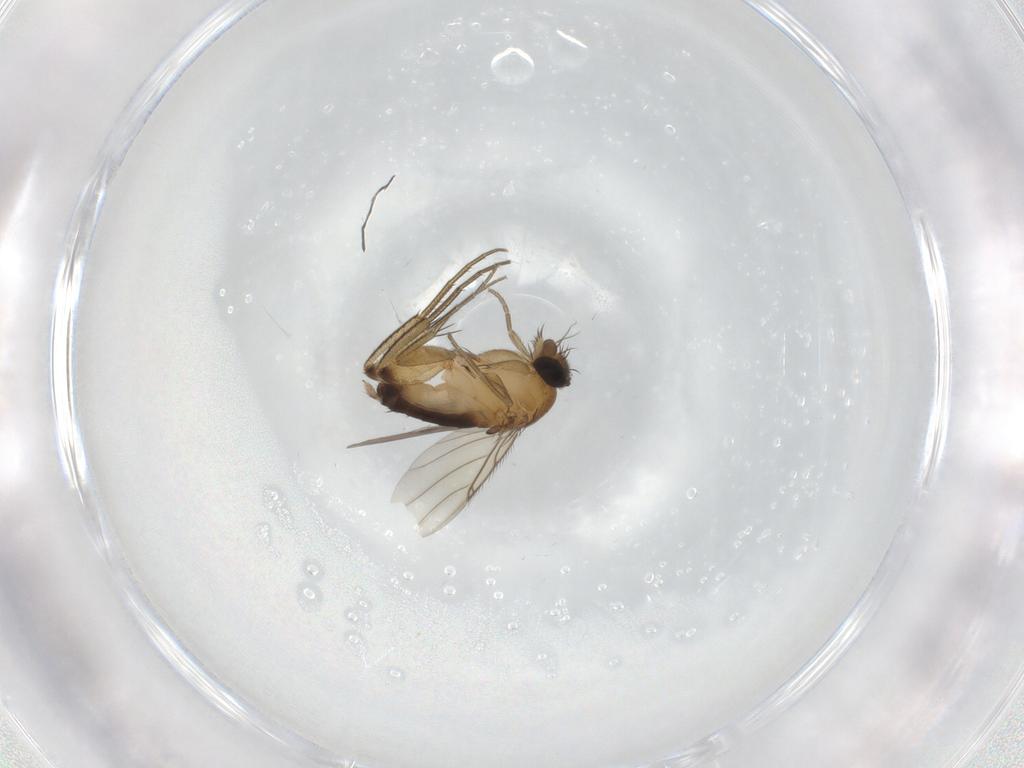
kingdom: Animalia
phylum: Arthropoda
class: Insecta
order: Diptera
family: Phoridae
